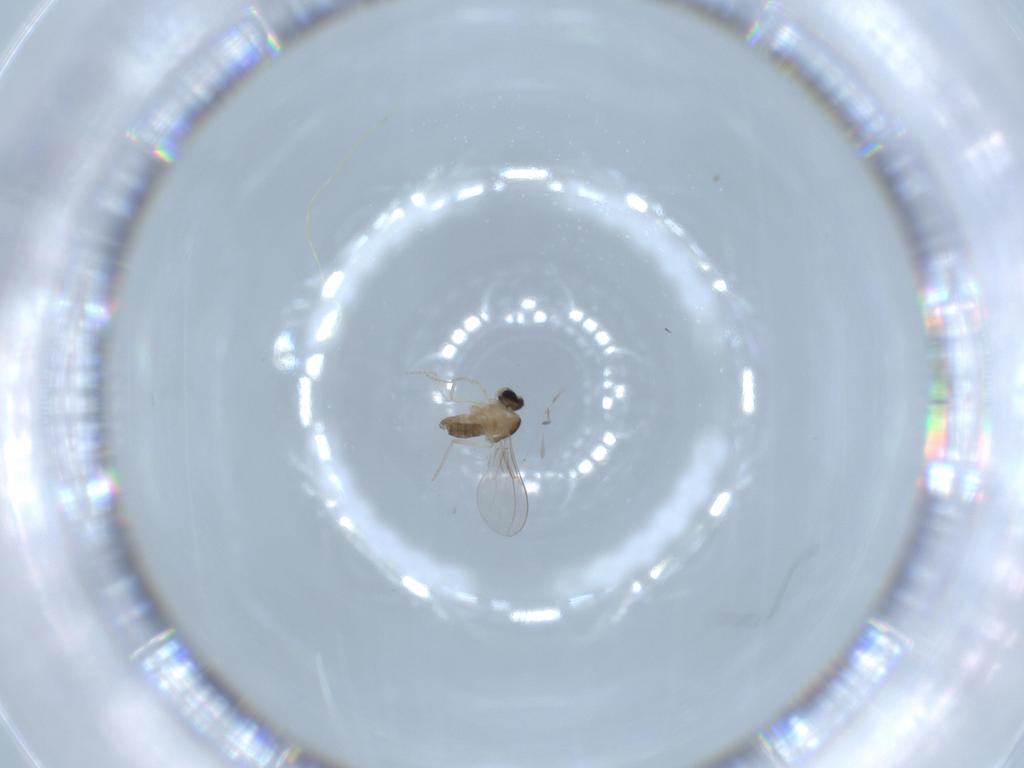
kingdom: Animalia
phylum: Arthropoda
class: Insecta
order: Diptera
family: Cecidomyiidae
